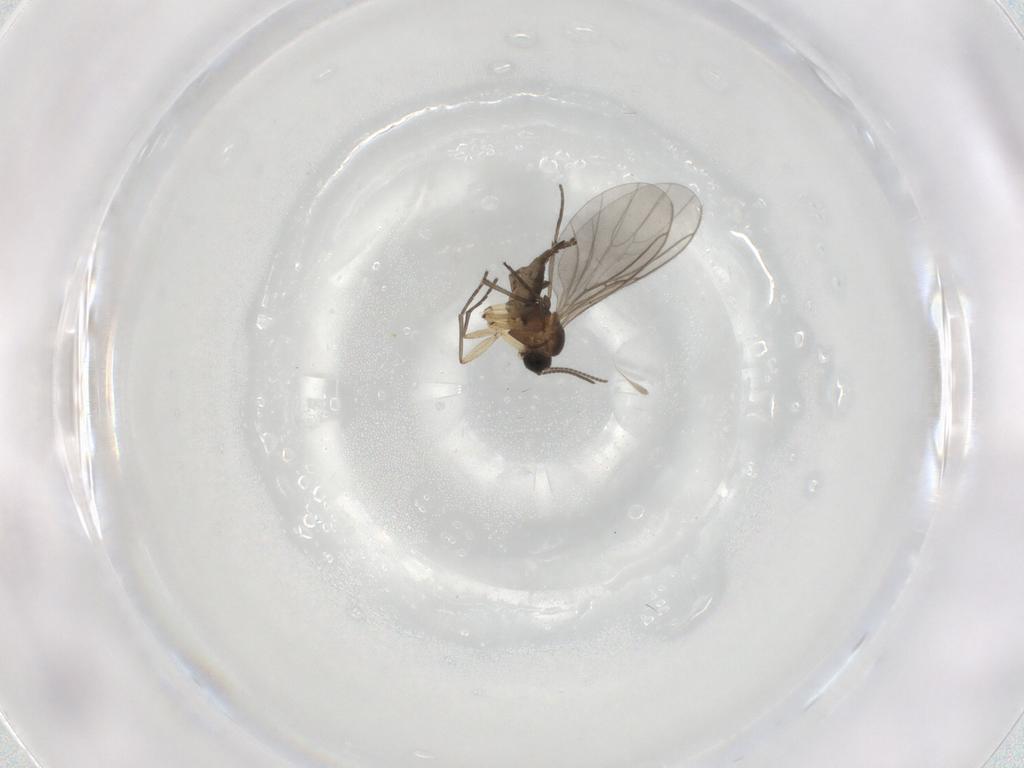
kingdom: Animalia
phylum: Arthropoda
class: Insecta
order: Diptera
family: Sciaridae
